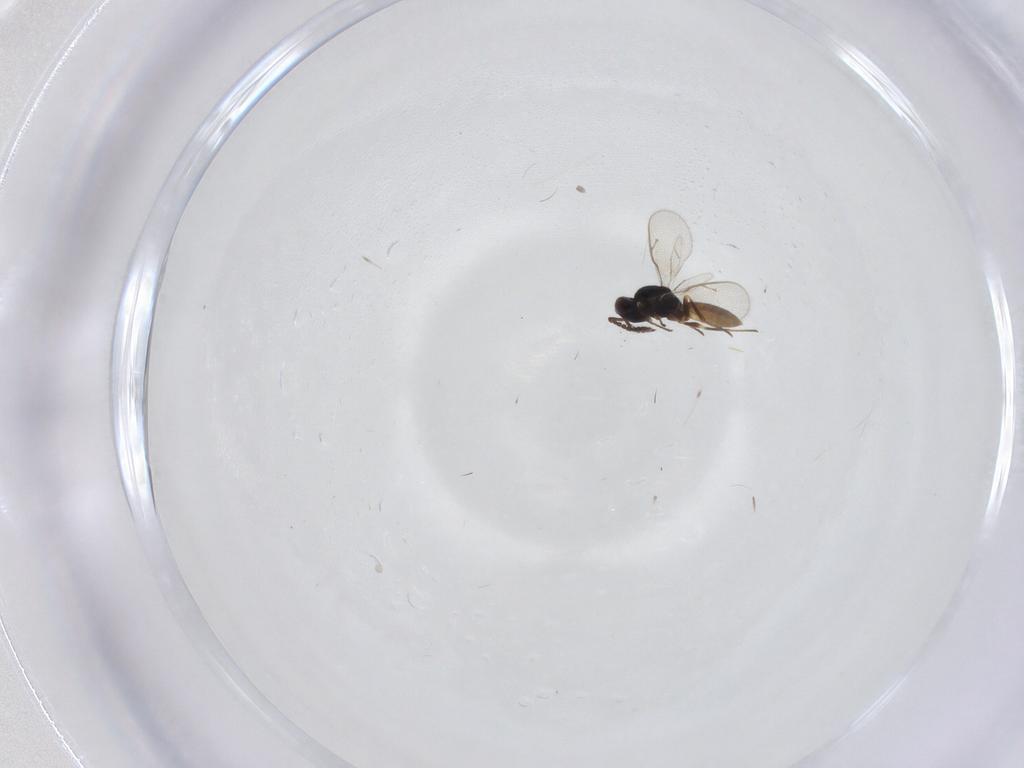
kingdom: Animalia
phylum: Arthropoda
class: Insecta
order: Hymenoptera
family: Pteromalidae
